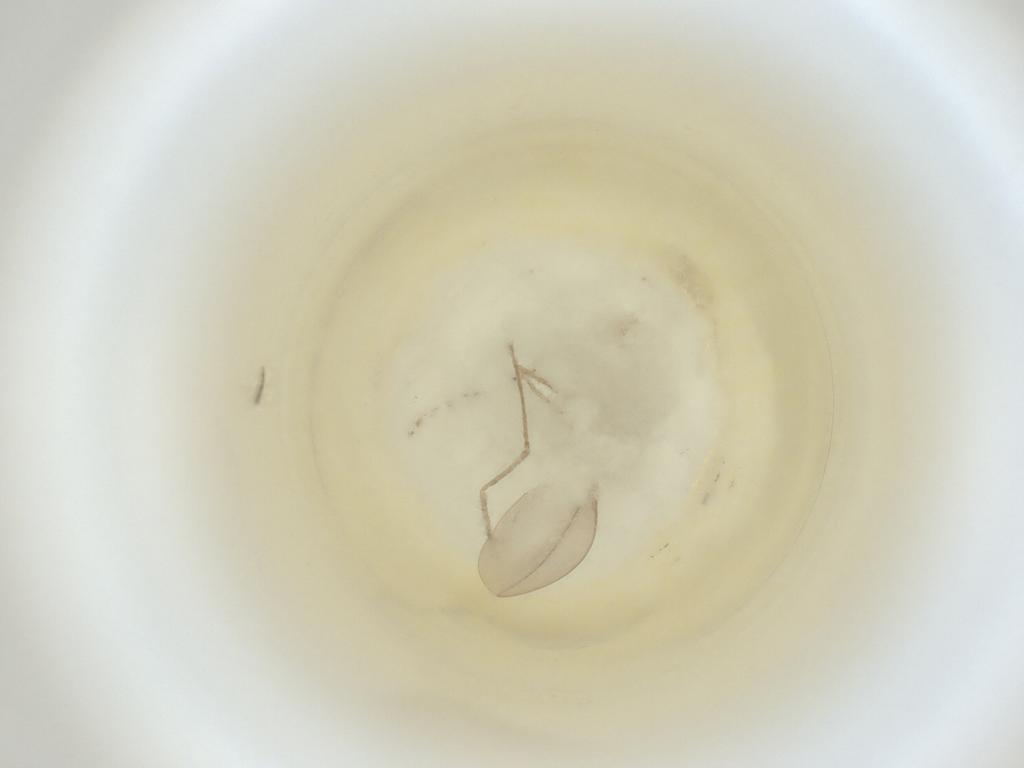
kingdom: Animalia
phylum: Arthropoda
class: Insecta
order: Diptera
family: Cecidomyiidae
